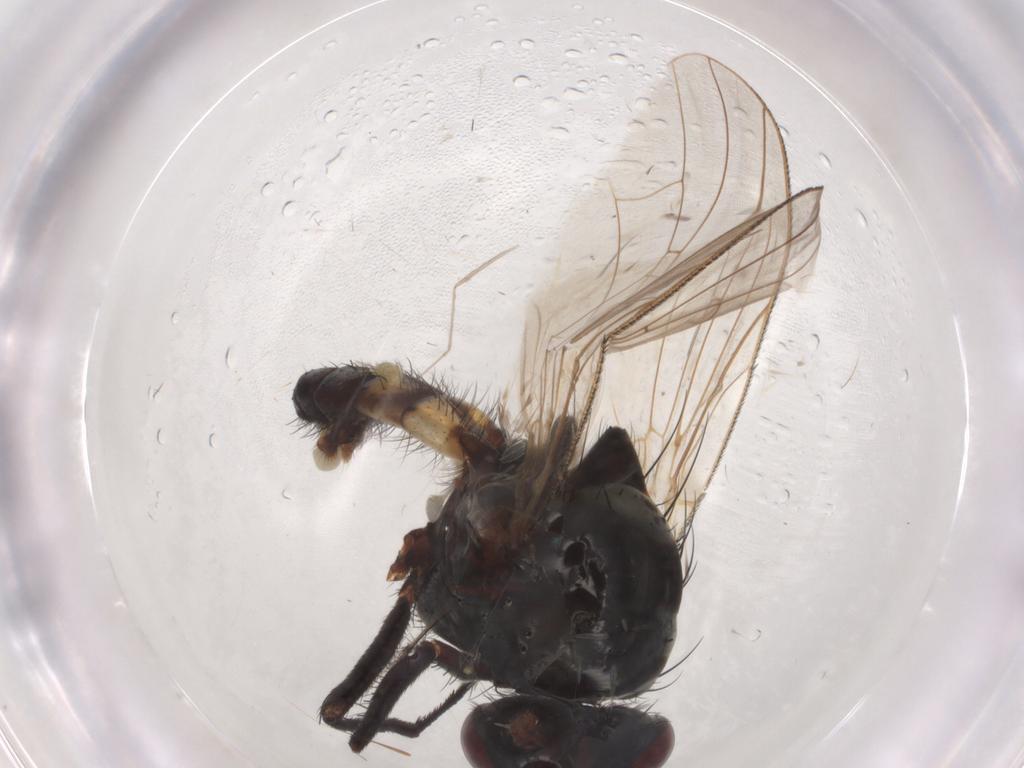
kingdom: Animalia
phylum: Arthropoda
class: Insecta
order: Diptera
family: Anthomyiidae
